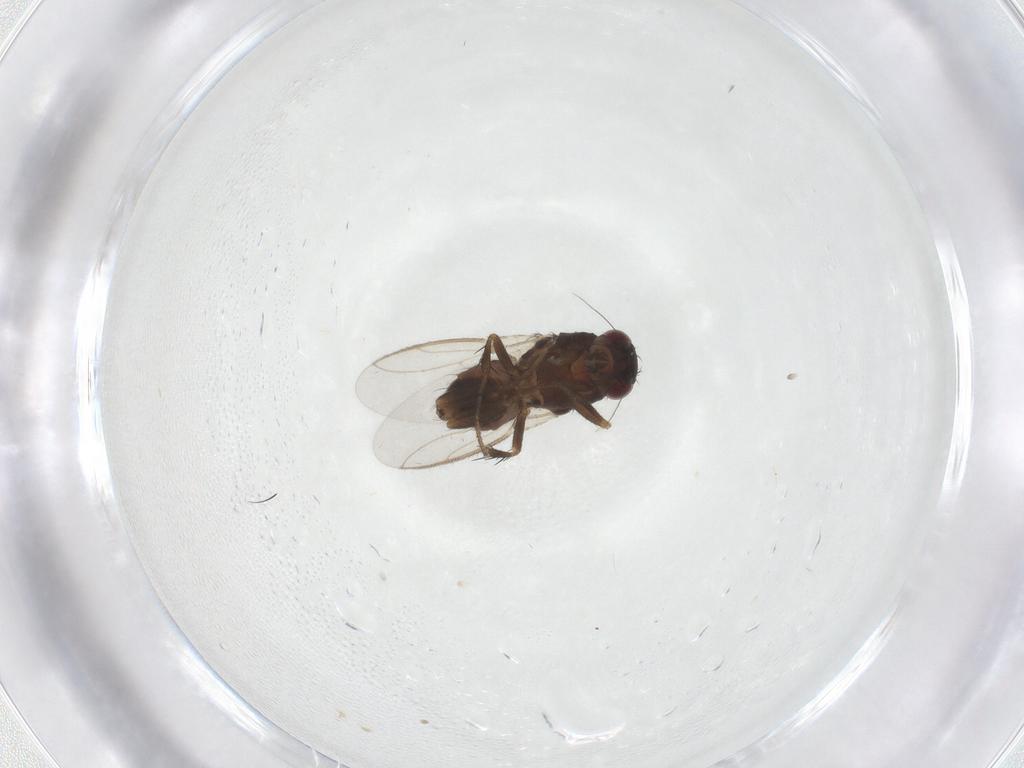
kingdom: Animalia
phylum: Arthropoda
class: Insecta
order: Diptera
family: Sphaeroceridae
